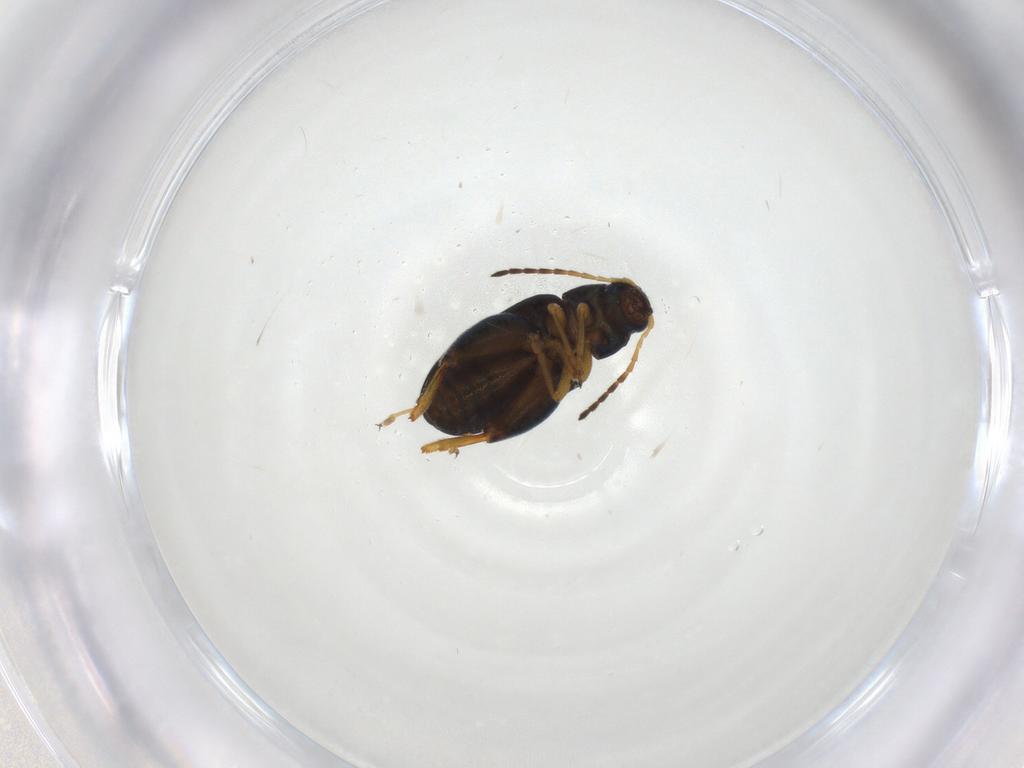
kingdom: Animalia
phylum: Arthropoda
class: Insecta
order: Coleoptera
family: Chrysomelidae
